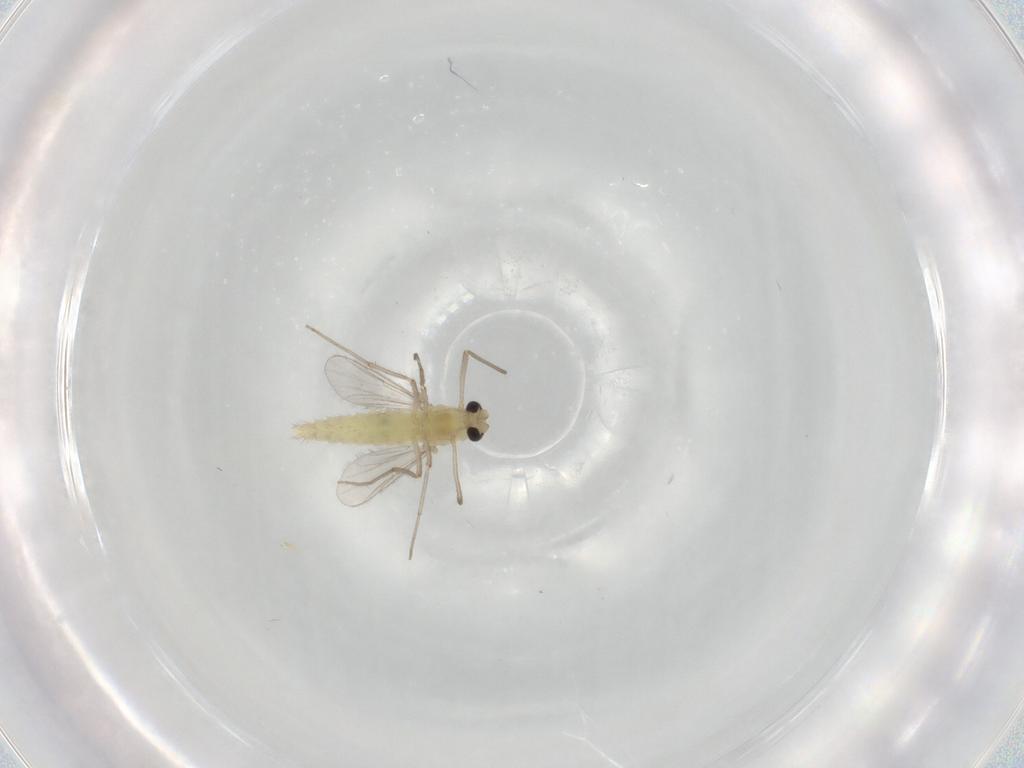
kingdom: Animalia
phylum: Arthropoda
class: Insecta
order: Diptera
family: Chironomidae
